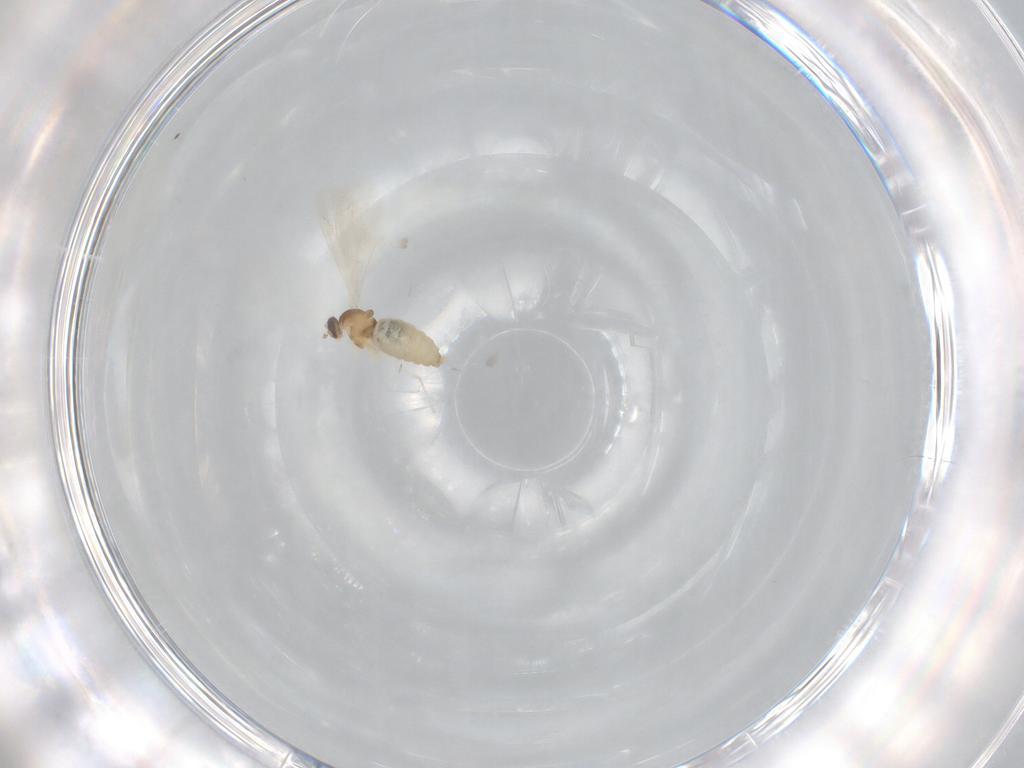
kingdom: Animalia
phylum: Arthropoda
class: Insecta
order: Diptera
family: Cecidomyiidae
